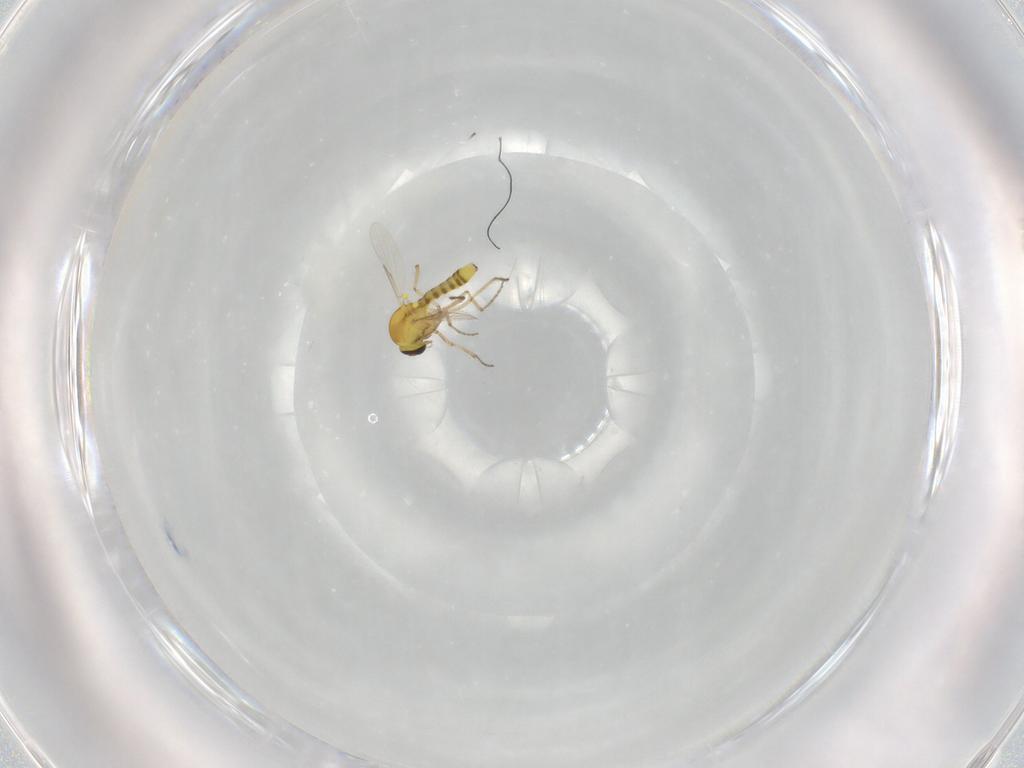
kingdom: Animalia
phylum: Arthropoda
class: Insecta
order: Diptera
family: Ceratopogonidae
